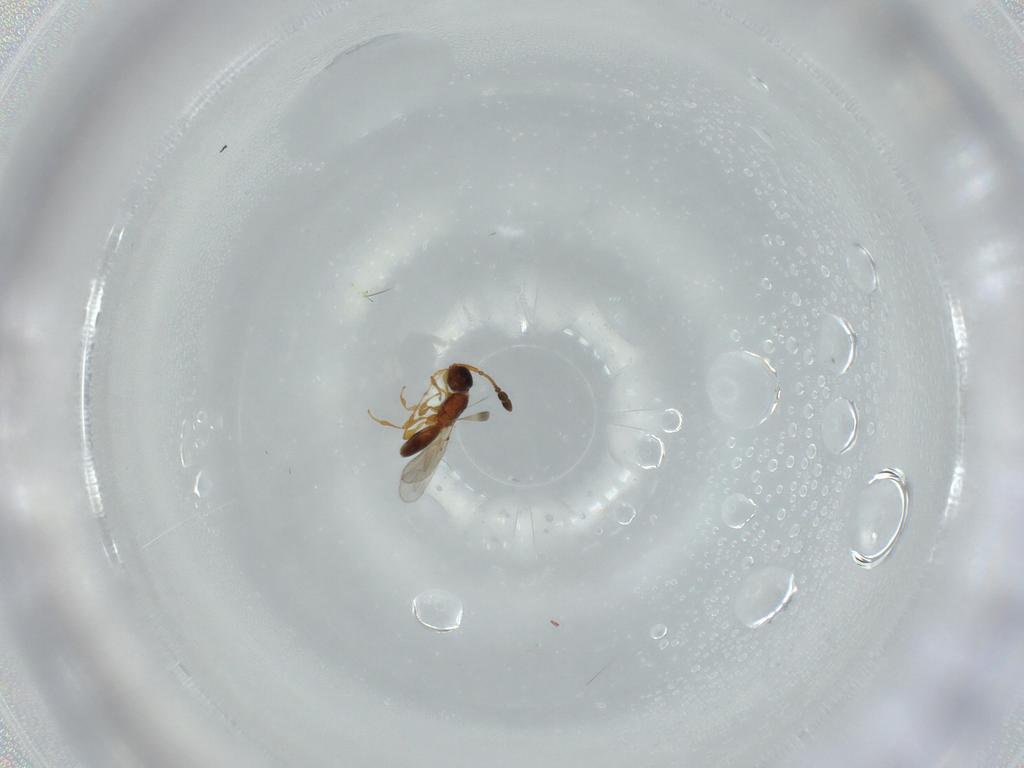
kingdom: Animalia
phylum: Arthropoda
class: Insecta
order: Hymenoptera
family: Diapriidae
